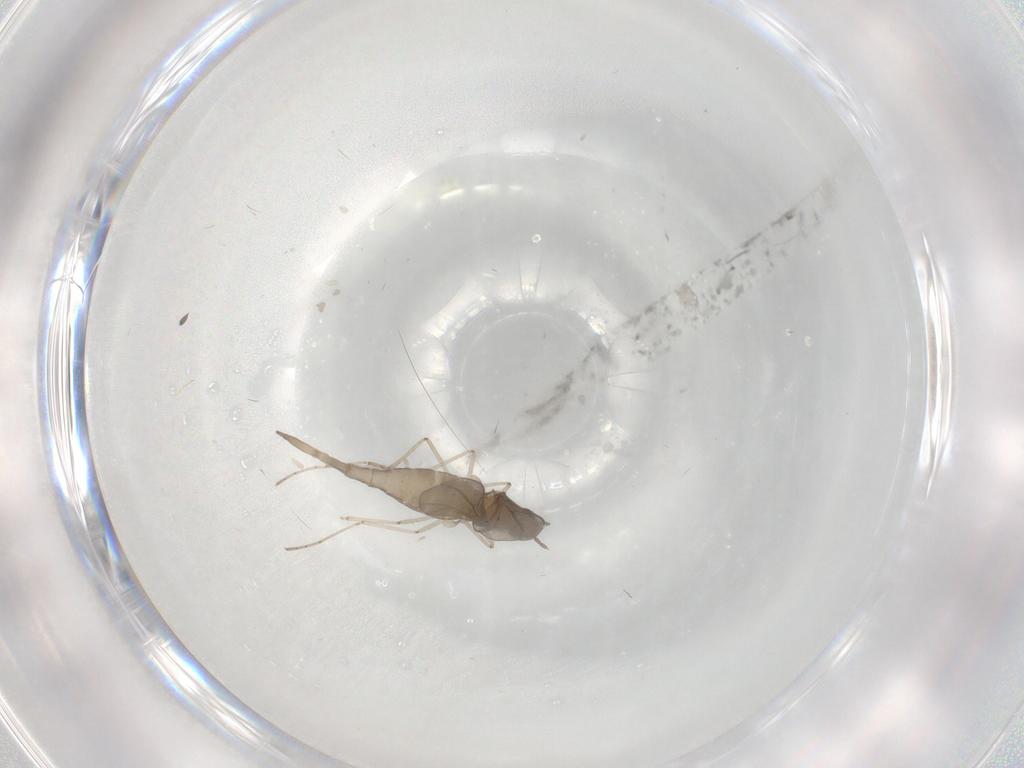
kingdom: Animalia
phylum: Arthropoda
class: Insecta
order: Diptera
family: Cecidomyiidae
